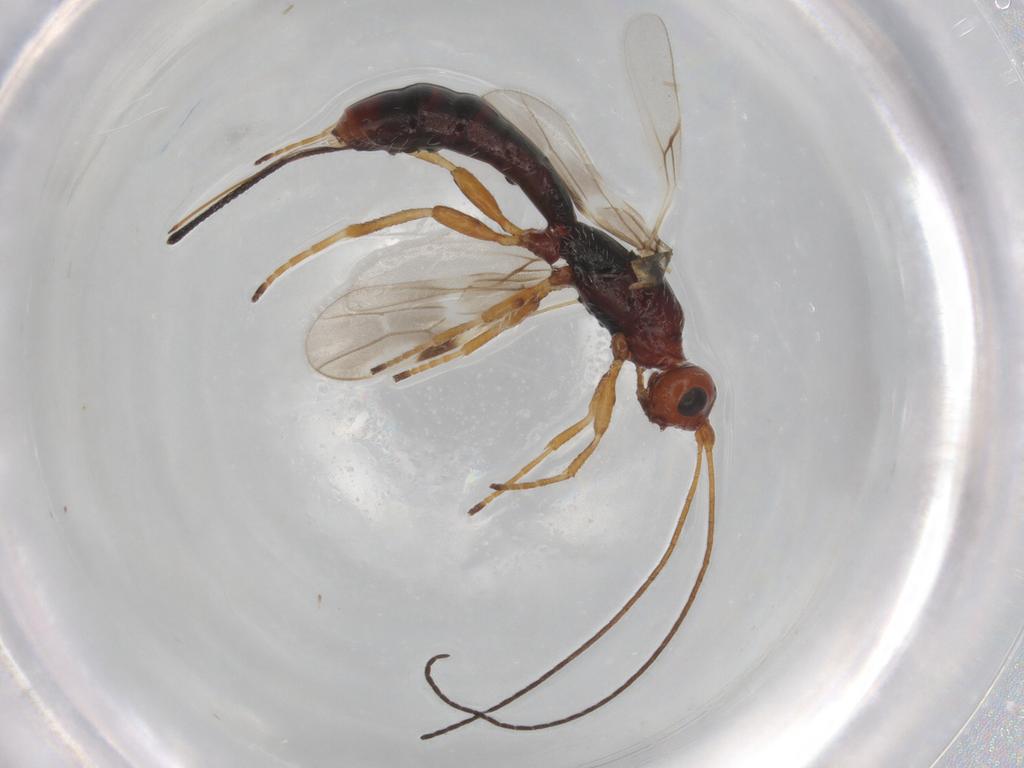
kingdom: Animalia
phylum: Arthropoda
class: Insecta
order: Hymenoptera
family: Braconidae
